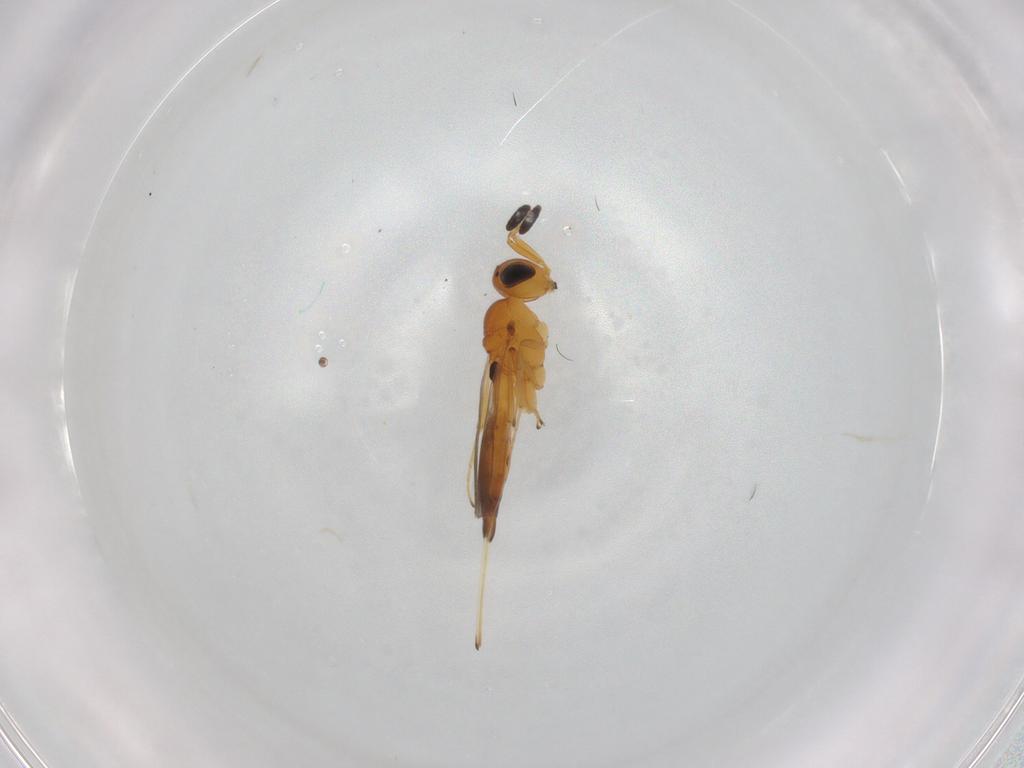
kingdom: Animalia
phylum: Arthropoda
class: Insecta
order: Hymenoptera
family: Scelionidae
